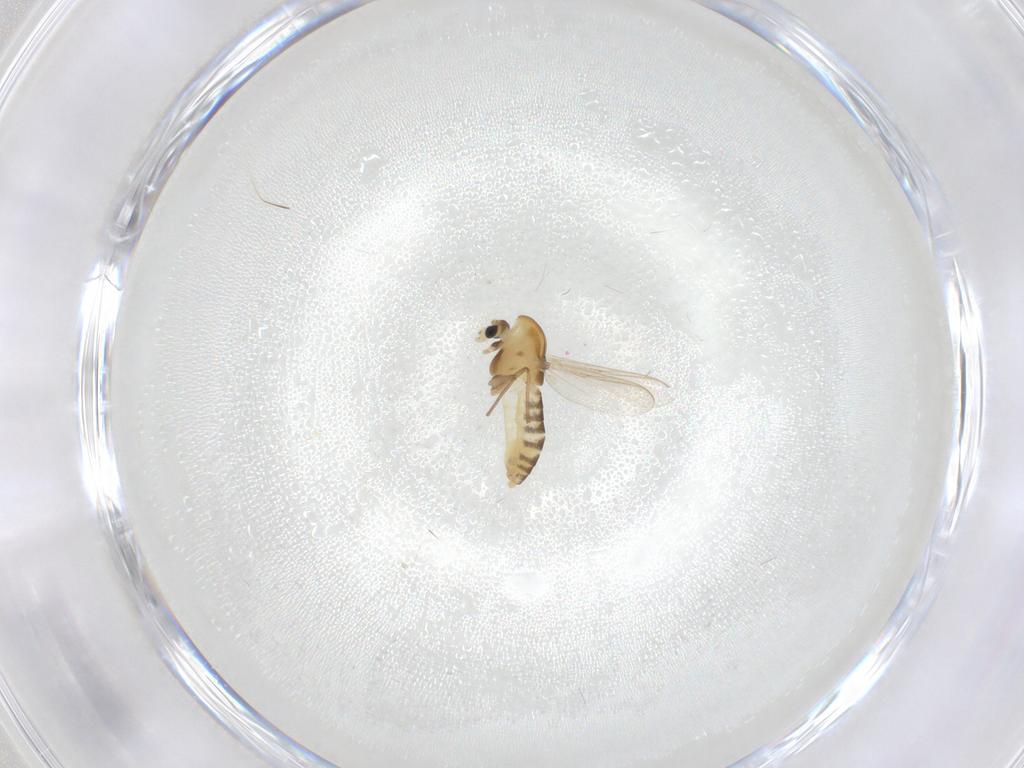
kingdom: Animalia
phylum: Arthropoda
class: Insecta
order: Diptera
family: Chironomidae
